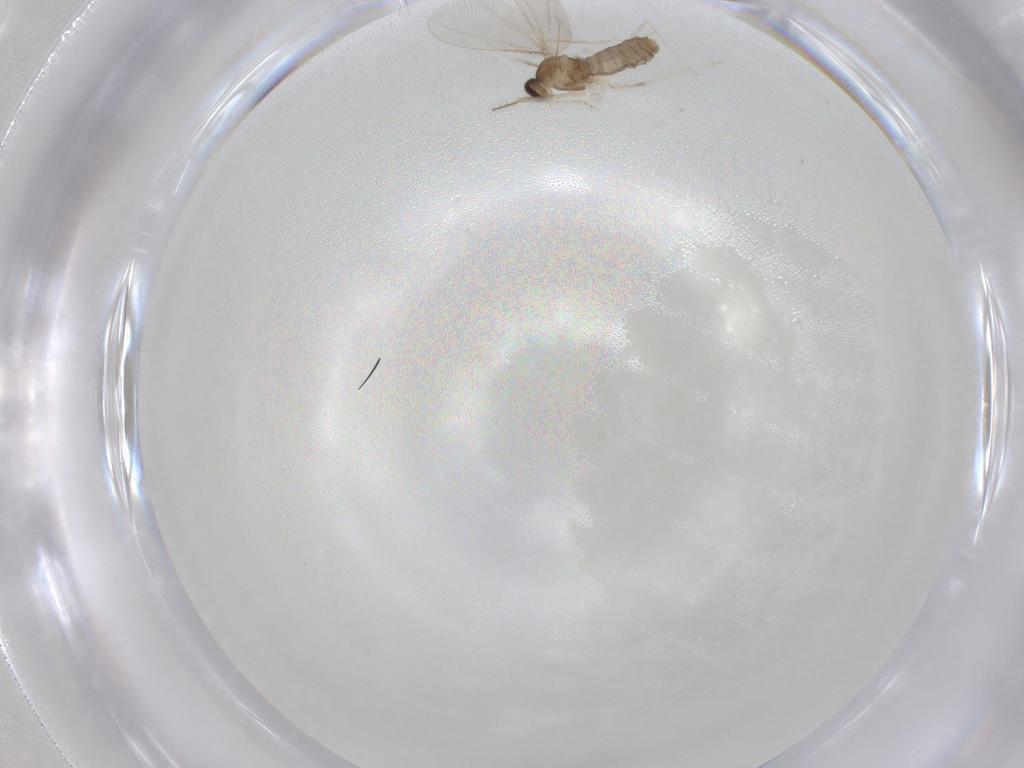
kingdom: Animalia
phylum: Arthropoda
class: Insecta
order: Diptera
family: Cecidomyiidae
